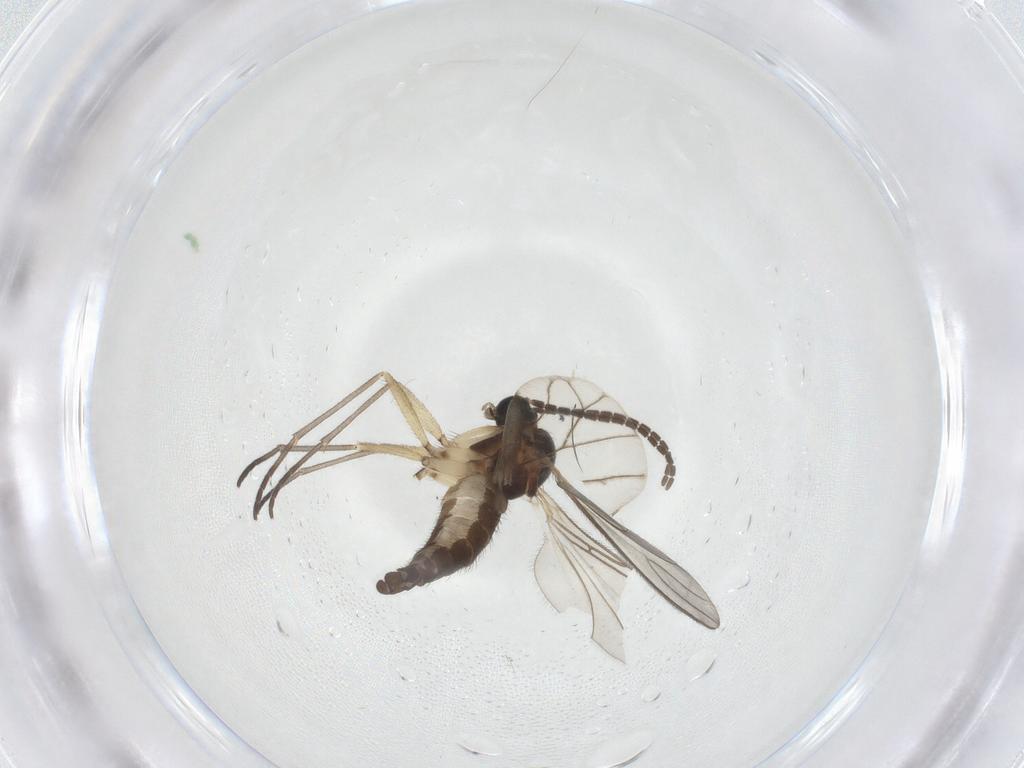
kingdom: Animalia
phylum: Arthropoda
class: Insecta
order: Diptera
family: Sciaridae
